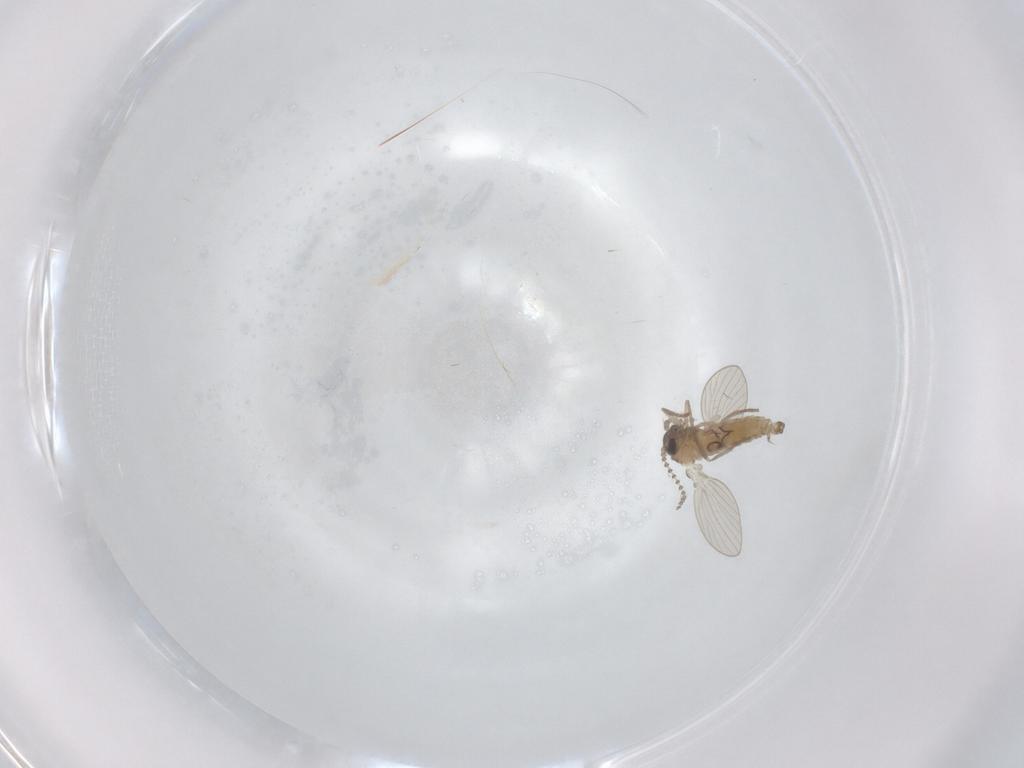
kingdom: Animalia
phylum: Arthropoda
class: Insecta
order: Diptera
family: Psychodidae
